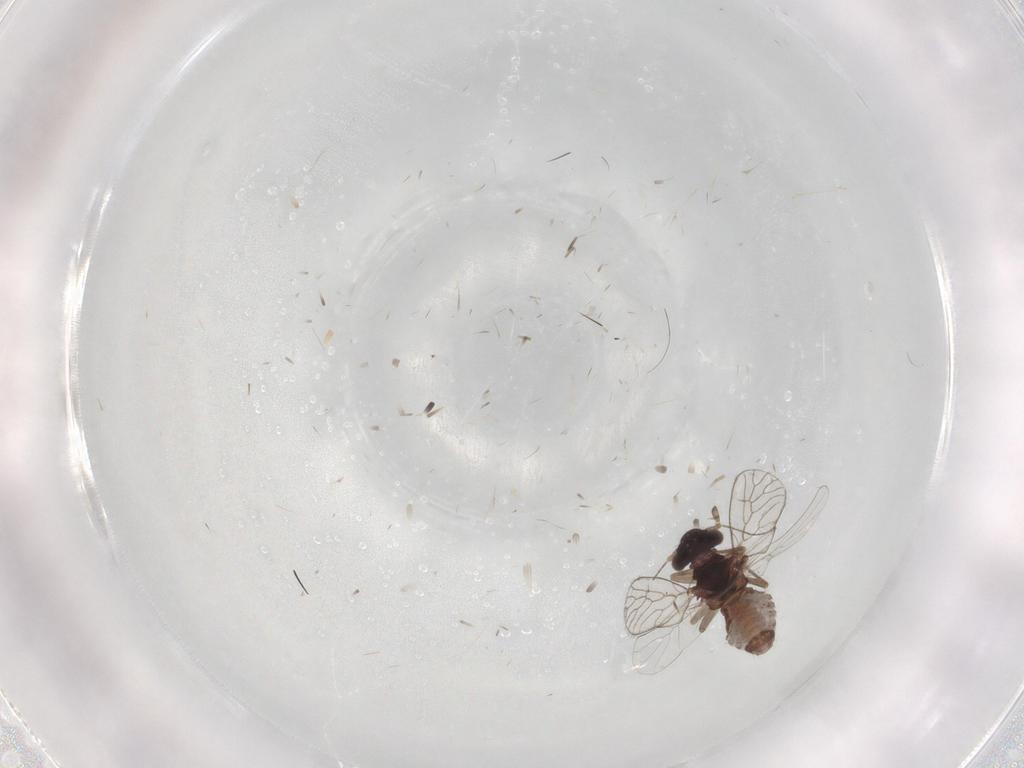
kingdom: Animalia
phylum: Arthropoda
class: Insecta
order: Psocodea
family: Psoquillidae
